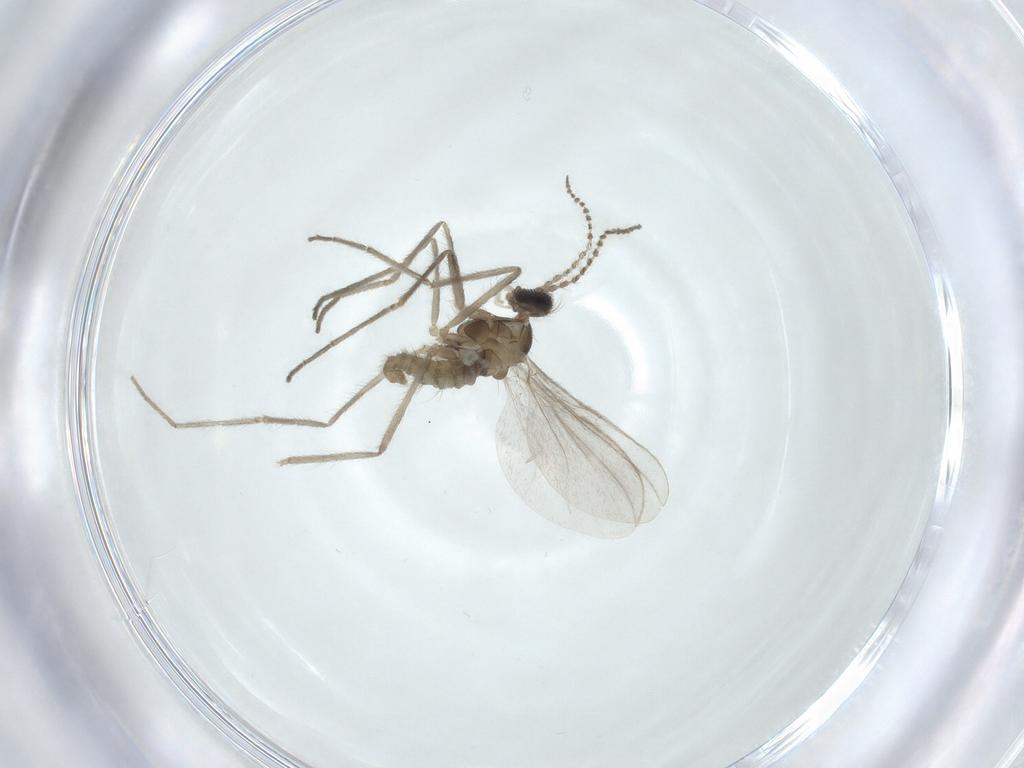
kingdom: Animalia
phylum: Arthropoda
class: Insecta
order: Diptera
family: Cecidomyiidae
